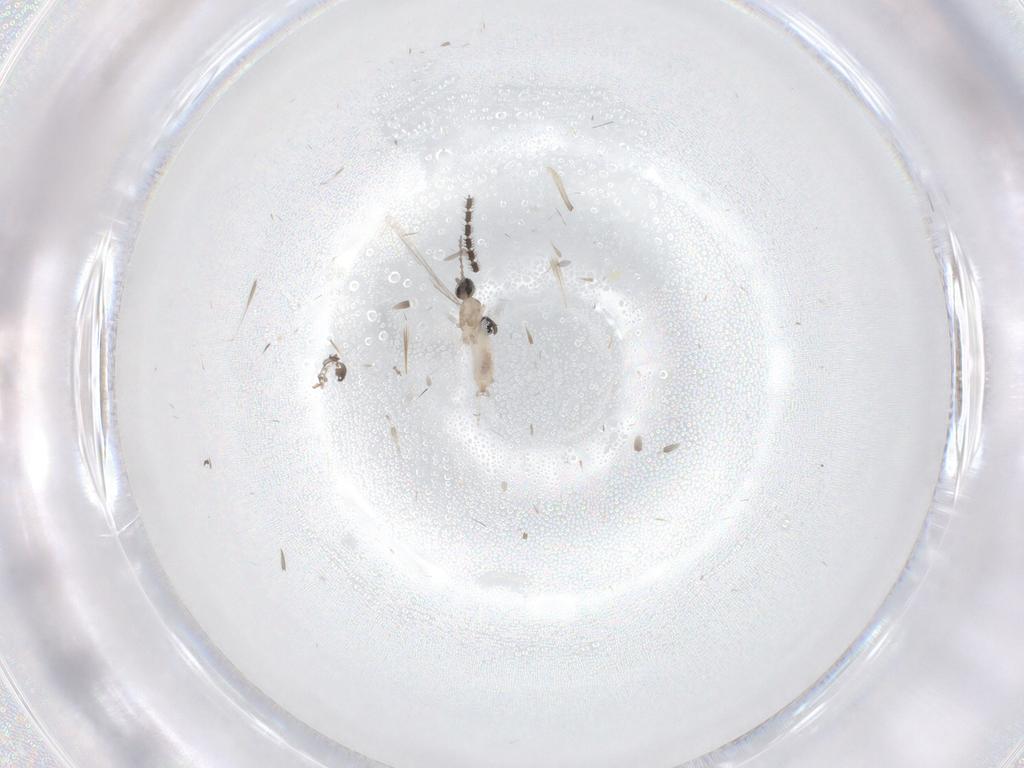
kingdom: Animalia
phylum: Arthropoda
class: Insecta
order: Diptera
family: Cecidomyiidae
